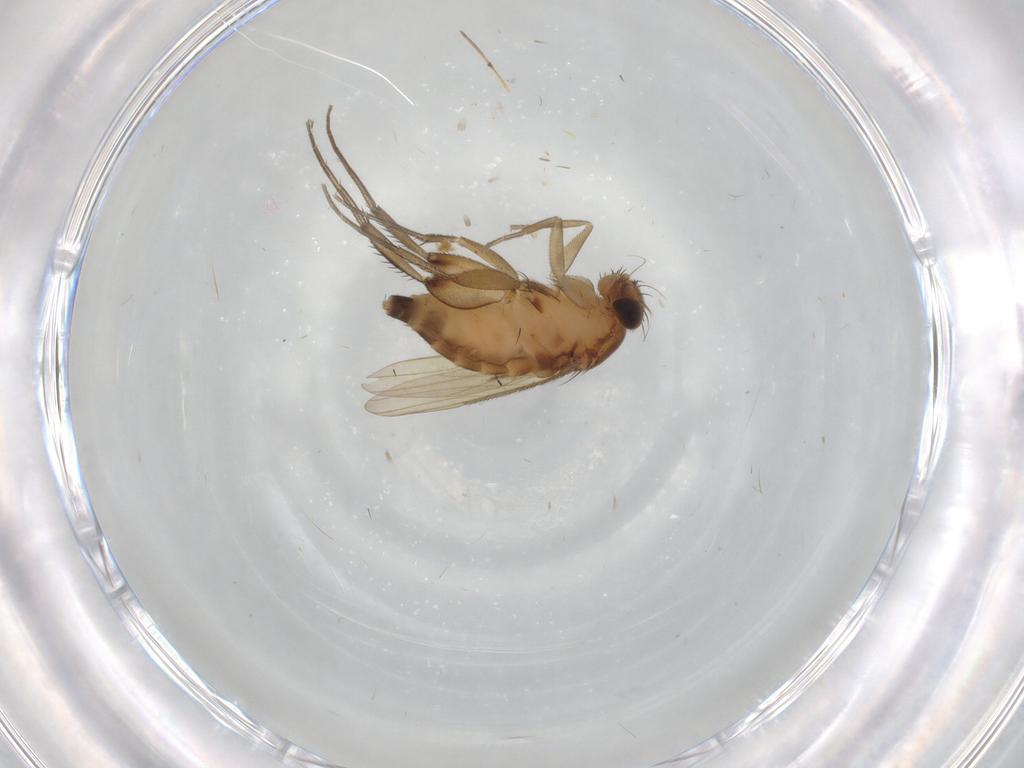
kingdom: Animalia
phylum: Arthropoda
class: Insecta
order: Diptera
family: Phoridae
